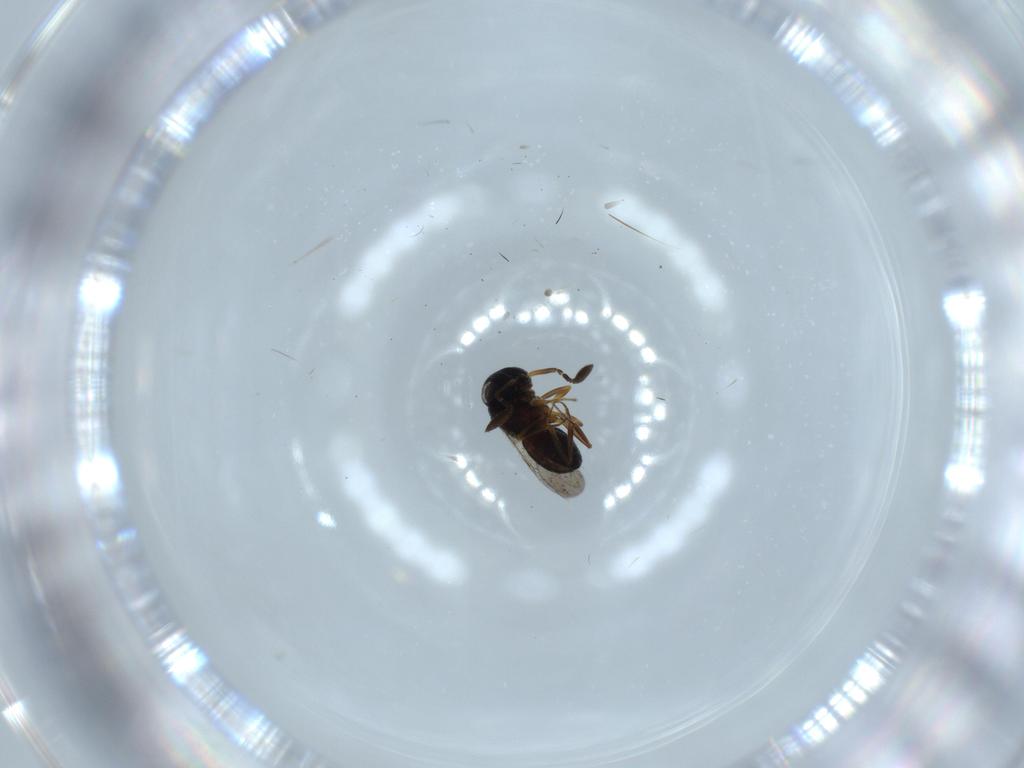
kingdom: Animalia
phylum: Arthropoda
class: Insecta
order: Coleoptera
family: Curculionidae
